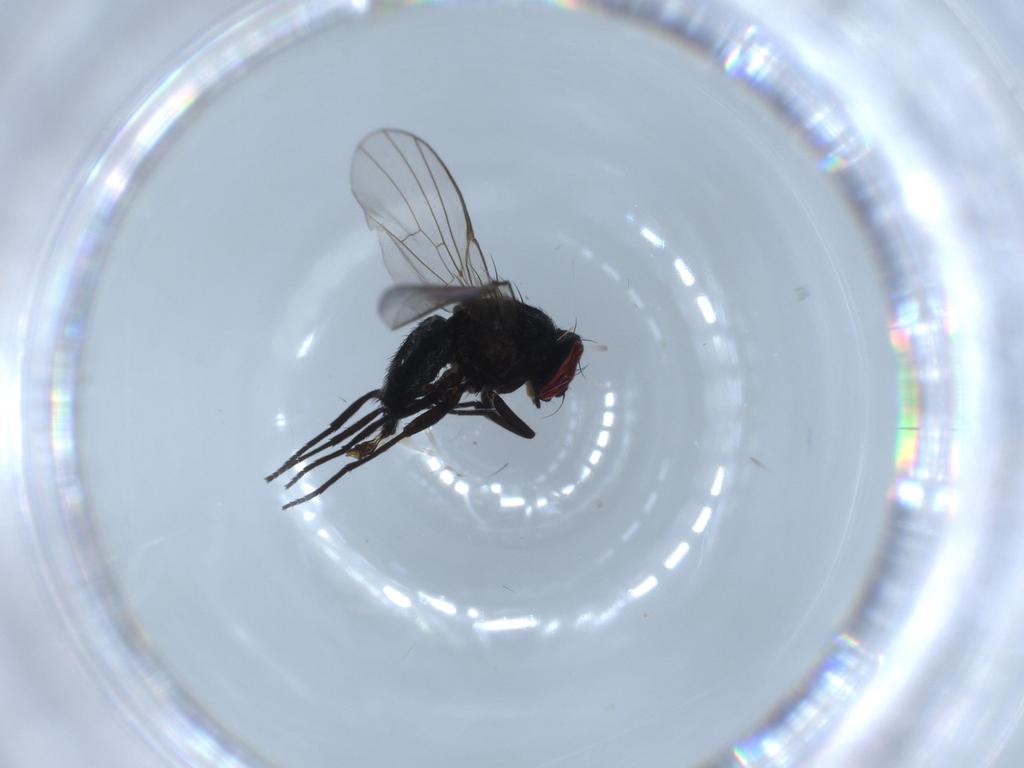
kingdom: Animalia
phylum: Arthropoda
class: Insecta
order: Diptera
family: Agromyzidae
